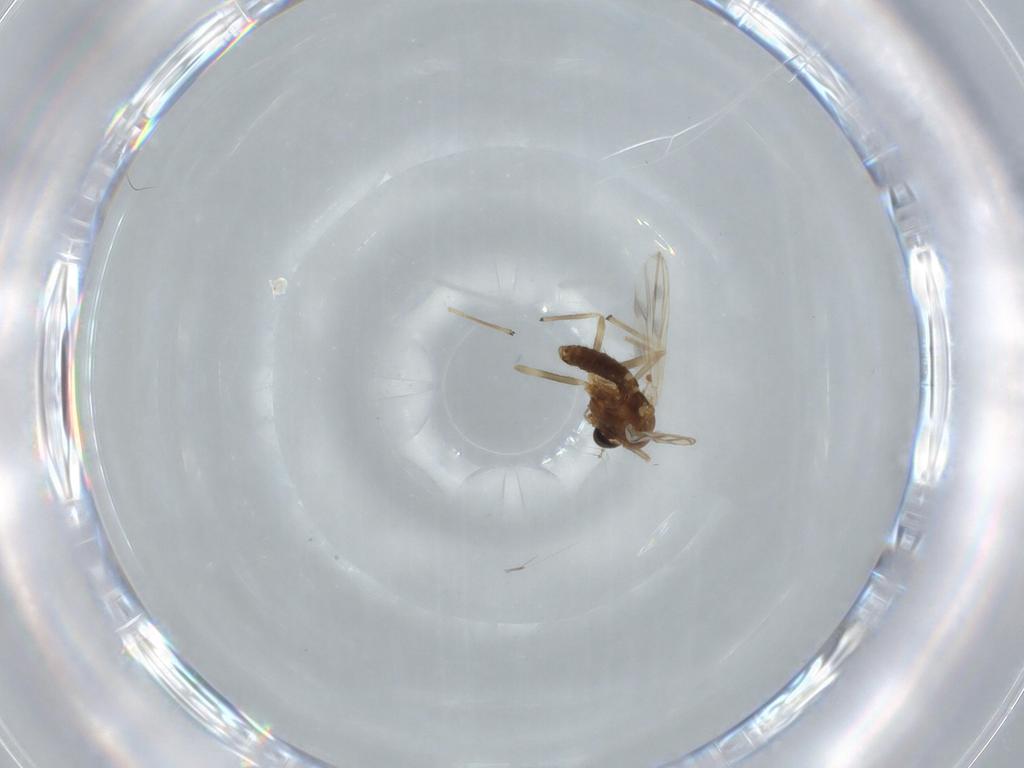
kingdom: Animalia
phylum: Arthropoda
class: Insecta
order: Diptera
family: Chironomidae
